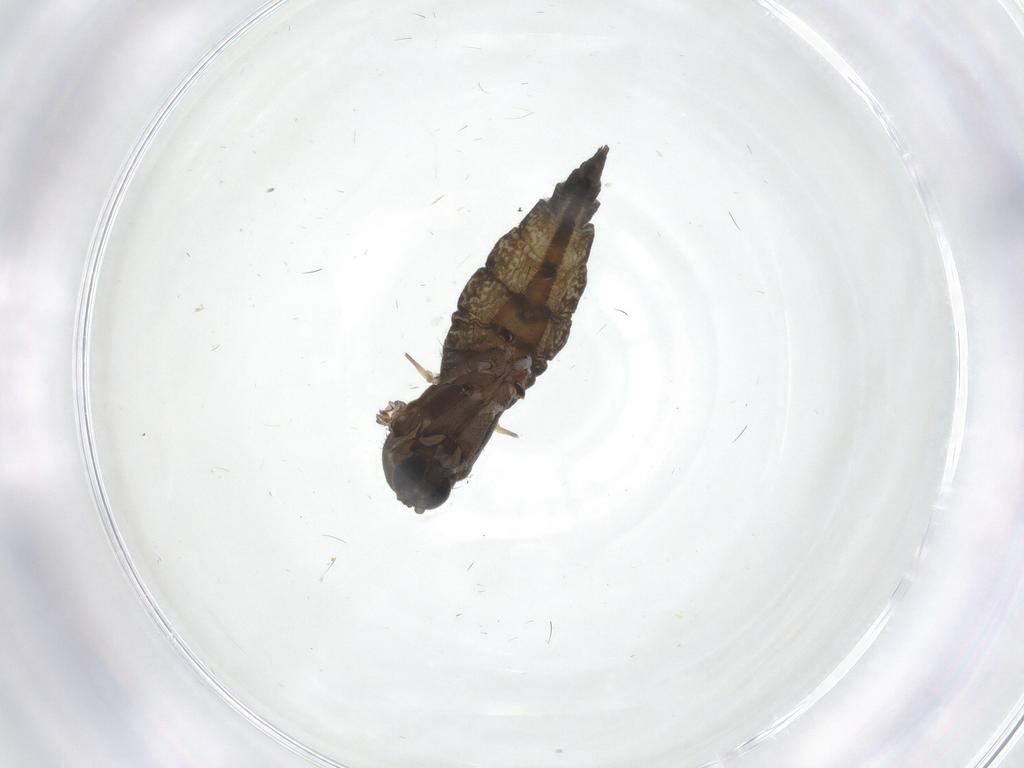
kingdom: Animalia
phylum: Arthropoda
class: Insecta
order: Diptera
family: Sciaridae
